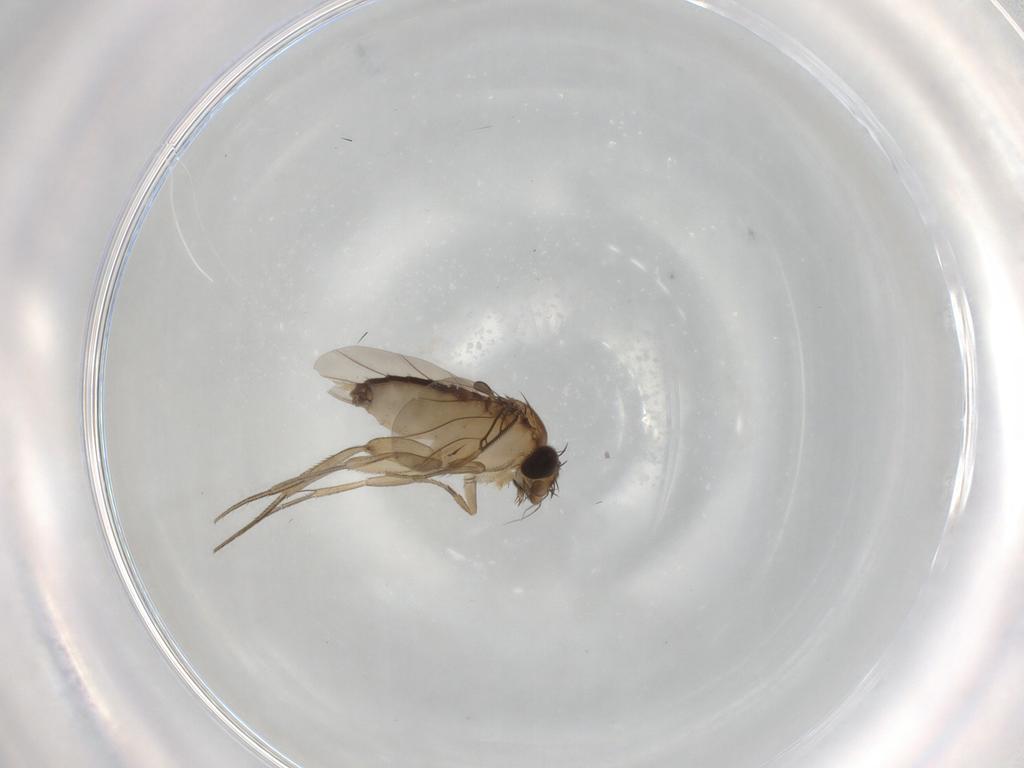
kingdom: Animalia
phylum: Arthropoda
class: Insecta
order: Diptera
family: Phoridae
